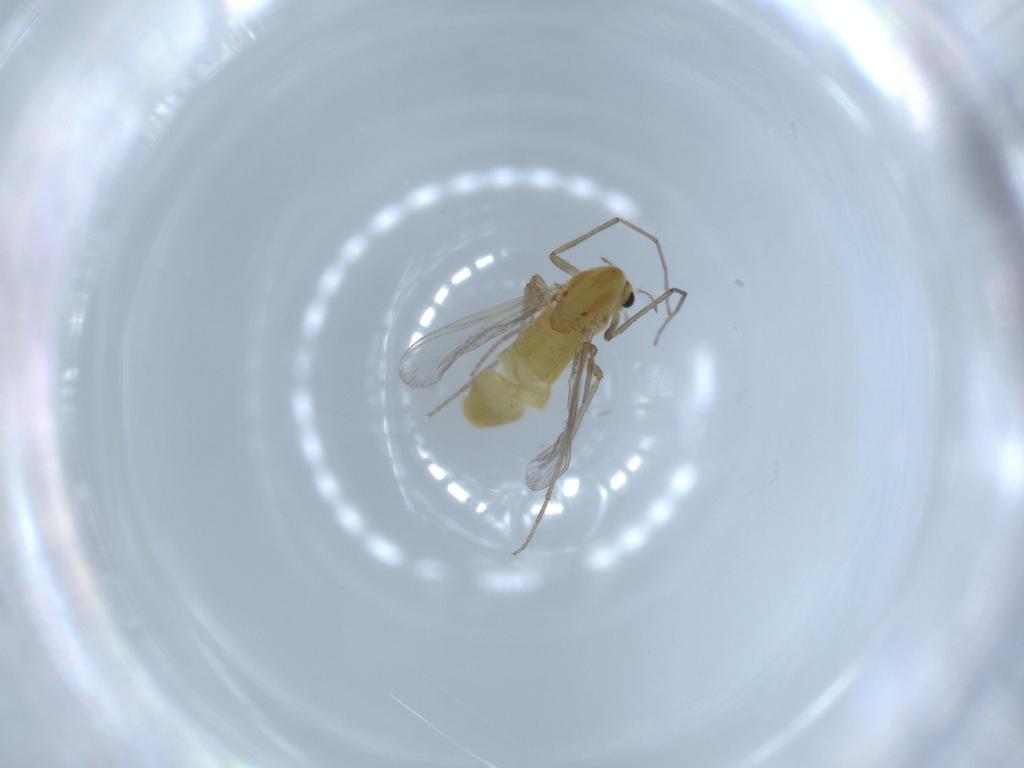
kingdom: Animalia
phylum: Arthropoda
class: Insecta
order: Diptera
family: Chironomidae
